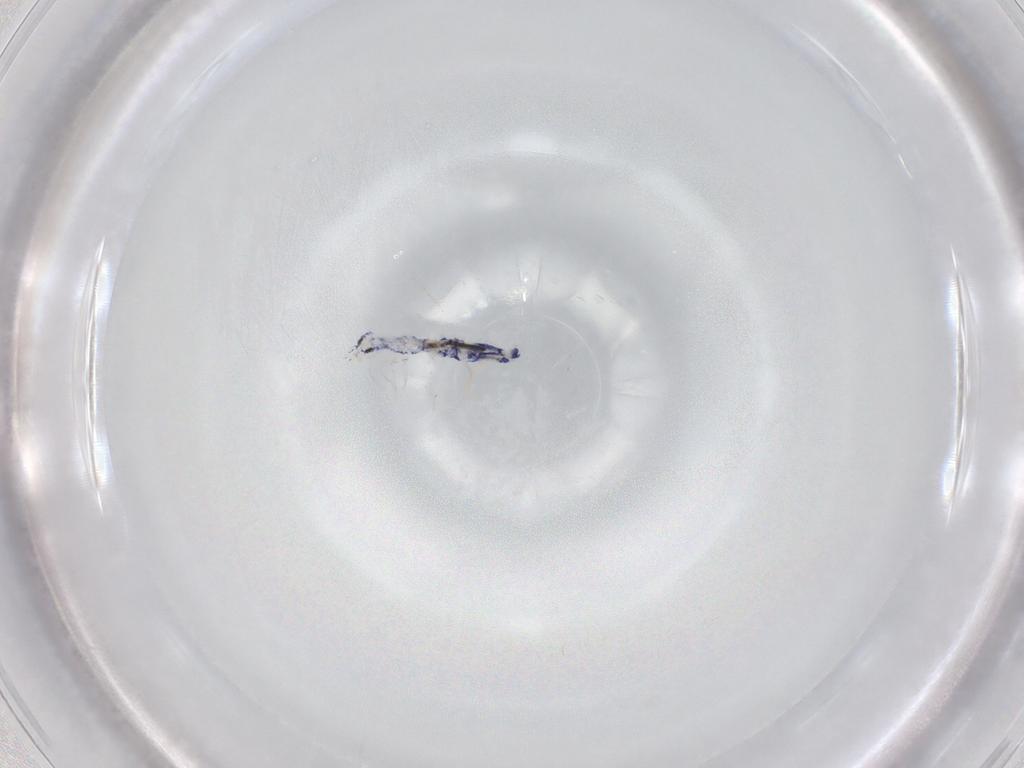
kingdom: Animalia
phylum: Arthropoda
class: Collembola
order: Entomobryomorpha
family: Entomobryidae
